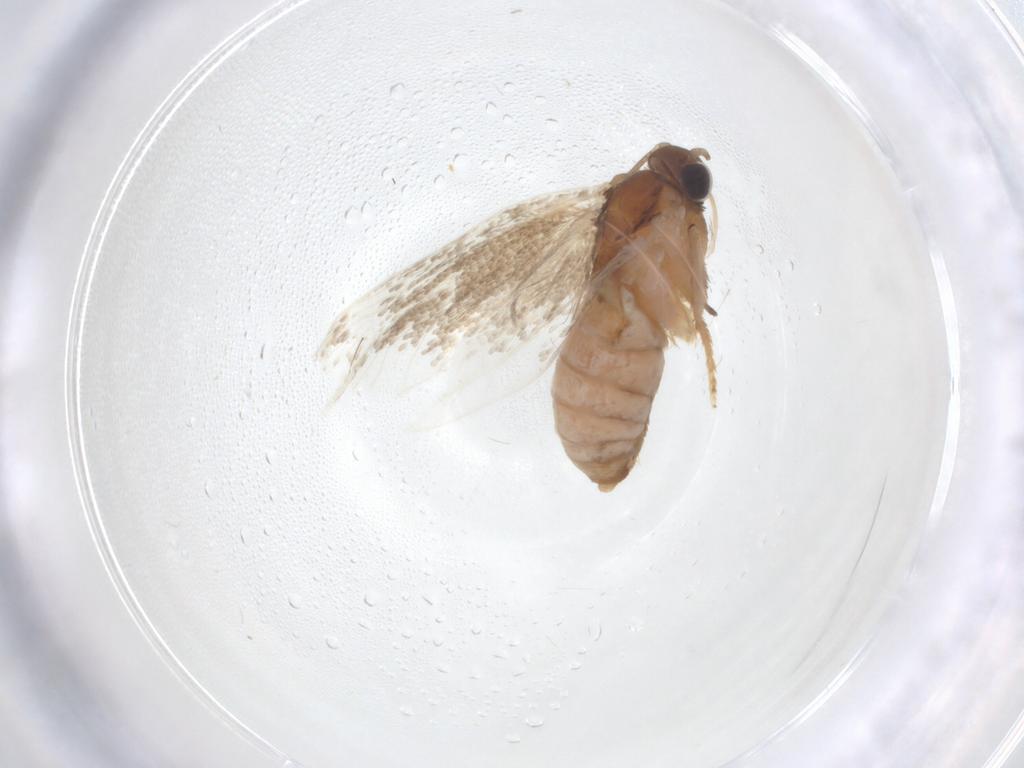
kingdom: Animalia
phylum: Arthropoda
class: Insecta
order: Lepidoptera
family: Tortricidae
